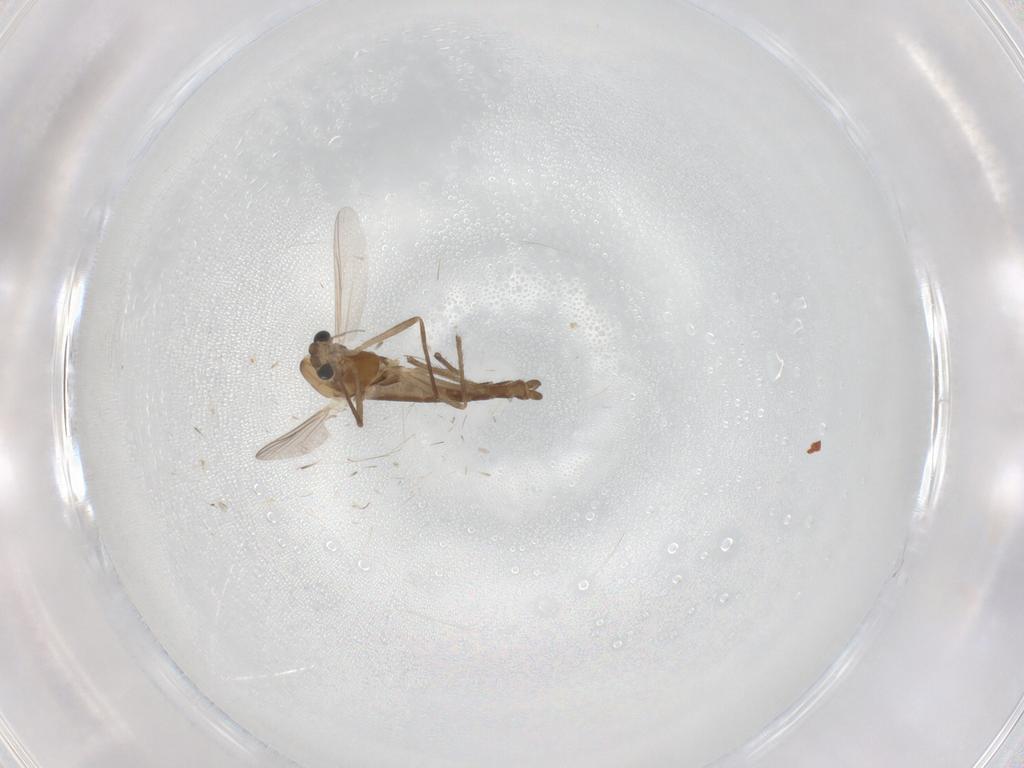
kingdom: Animalia
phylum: Arthropoda
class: Insecta
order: Diptera
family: Chironomidae
